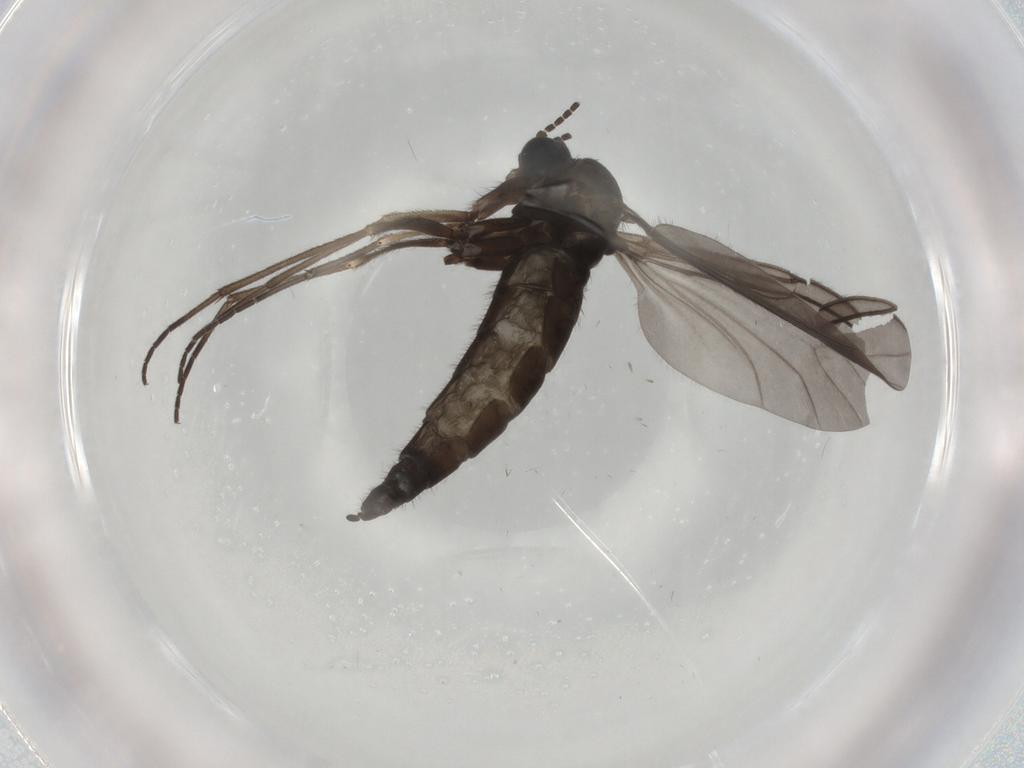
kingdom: Animalia
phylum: Arthropoda
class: Insecta
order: Diptera
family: Sciaridae
